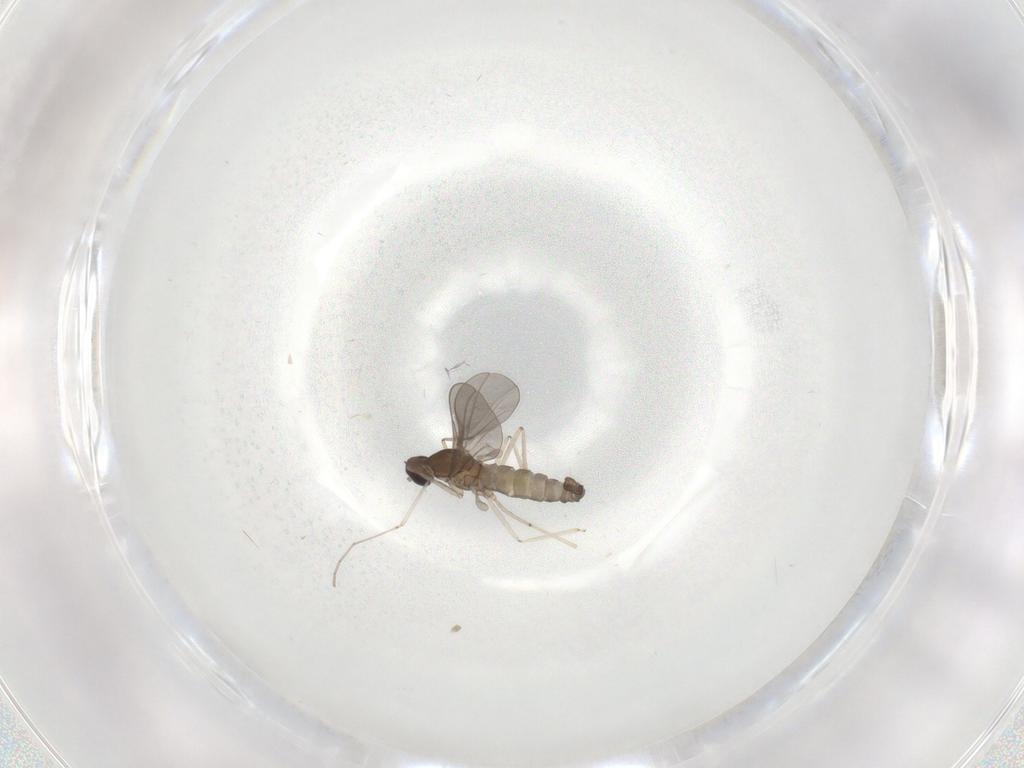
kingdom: Animalia
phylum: Arthropoda
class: Insecta
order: Diptera
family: Cecidomyiidae
